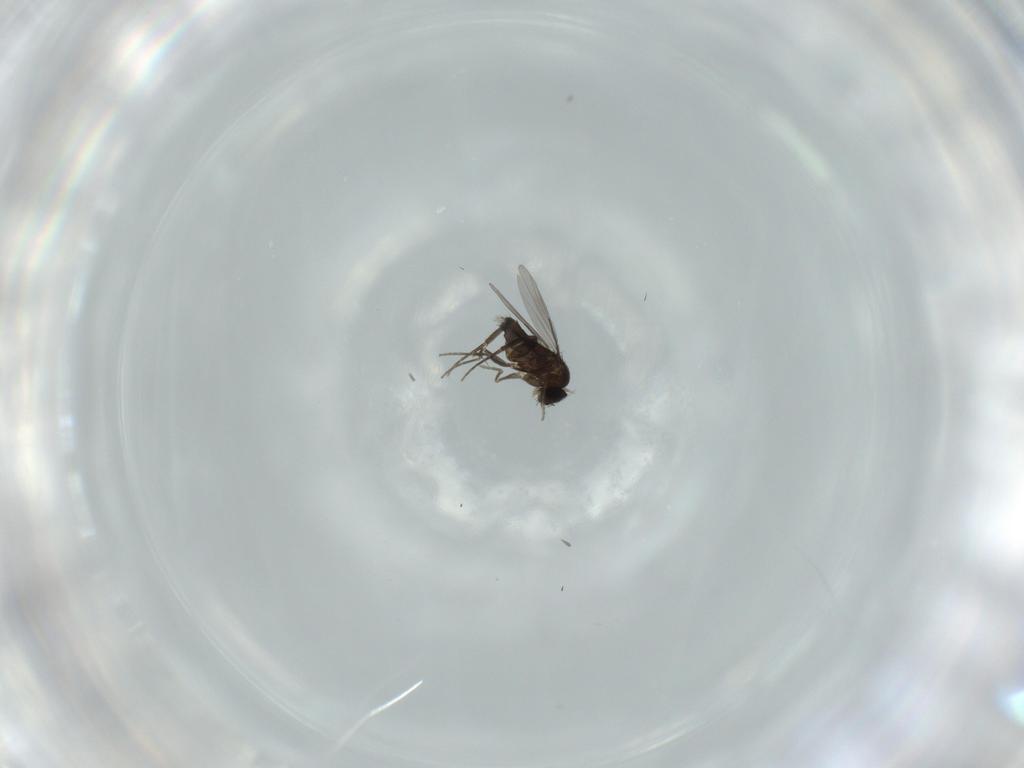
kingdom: Animalia
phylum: Arthropoda
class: Insecta
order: Diptera
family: Phoridae
